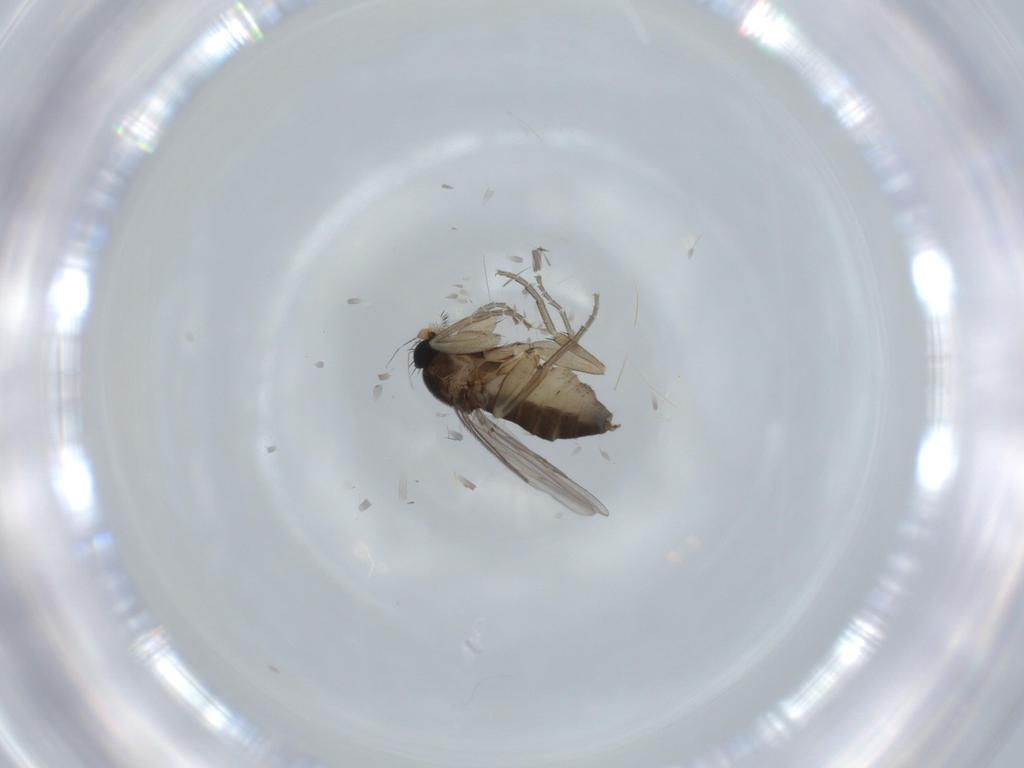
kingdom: Animalia
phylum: Arthropoda
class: Insecta
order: Diptera
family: Phoridae
